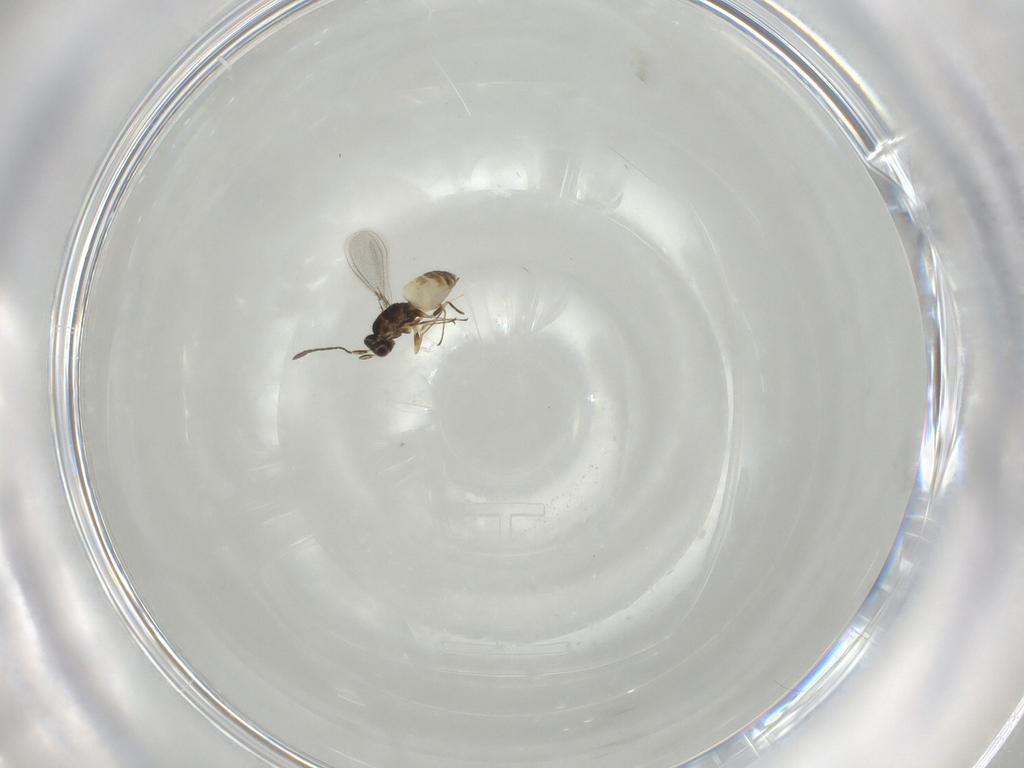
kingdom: Animalia
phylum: Arthropoda
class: Insecta
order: Hymenoptera
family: Mymaridae
